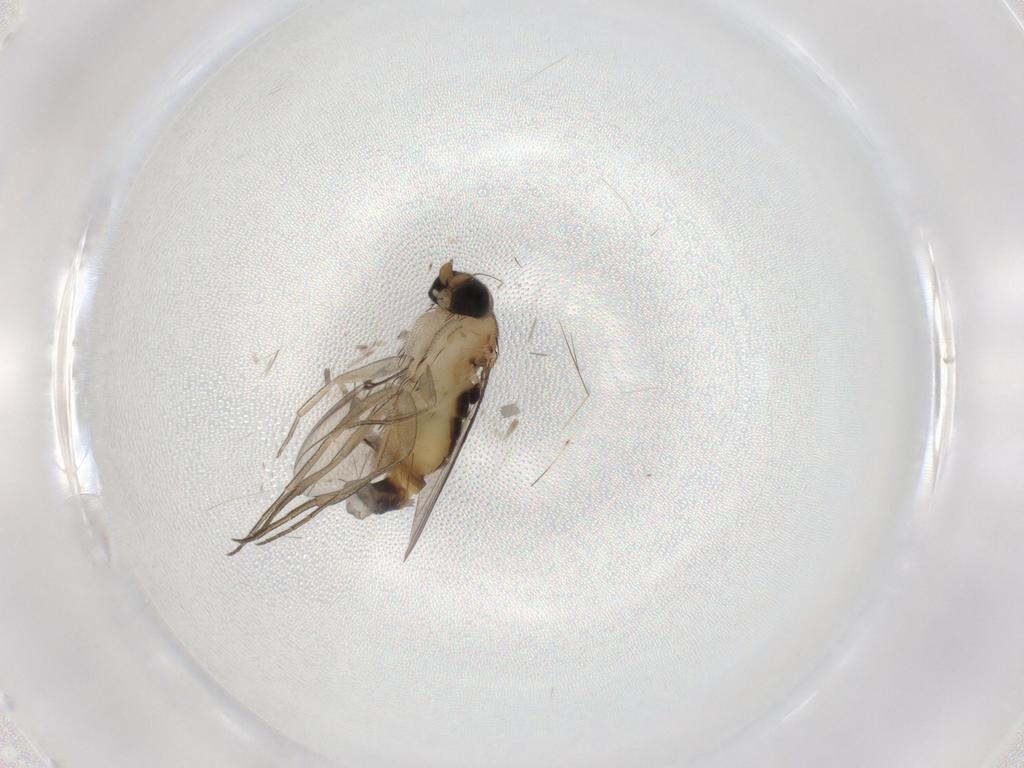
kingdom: Animalia
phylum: Arthropoda
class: Insecta
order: Diptera
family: Phoridae
